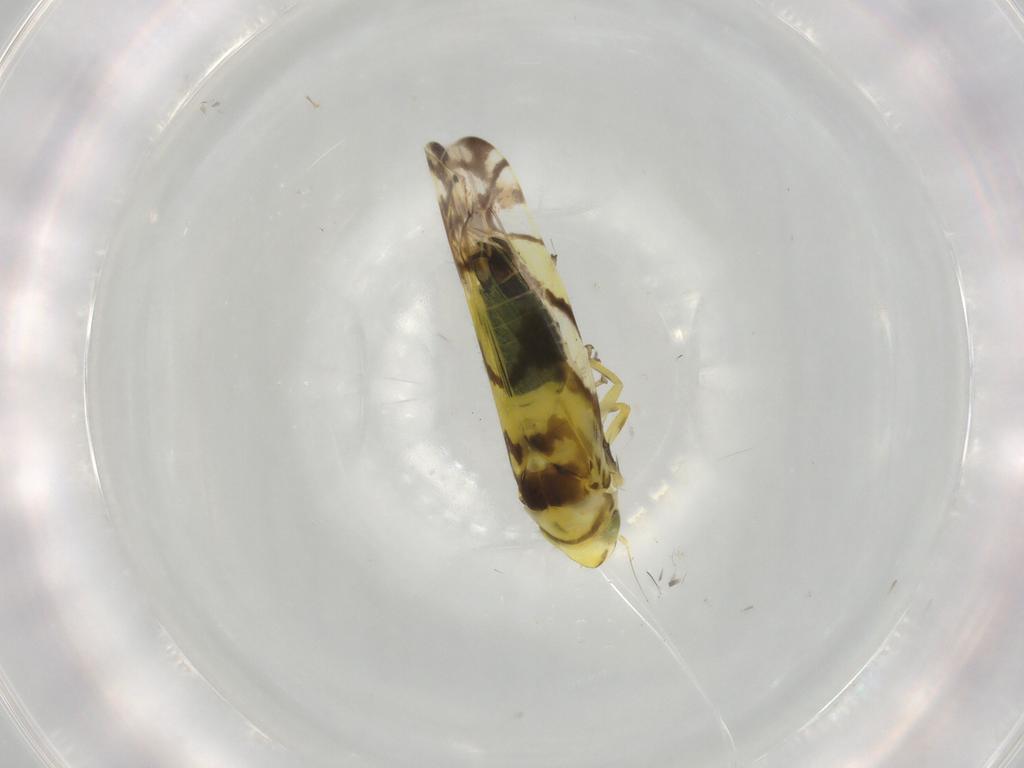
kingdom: Animalia
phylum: Arthropoda
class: Insecta
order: Hemiptera
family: Cicadellidae
